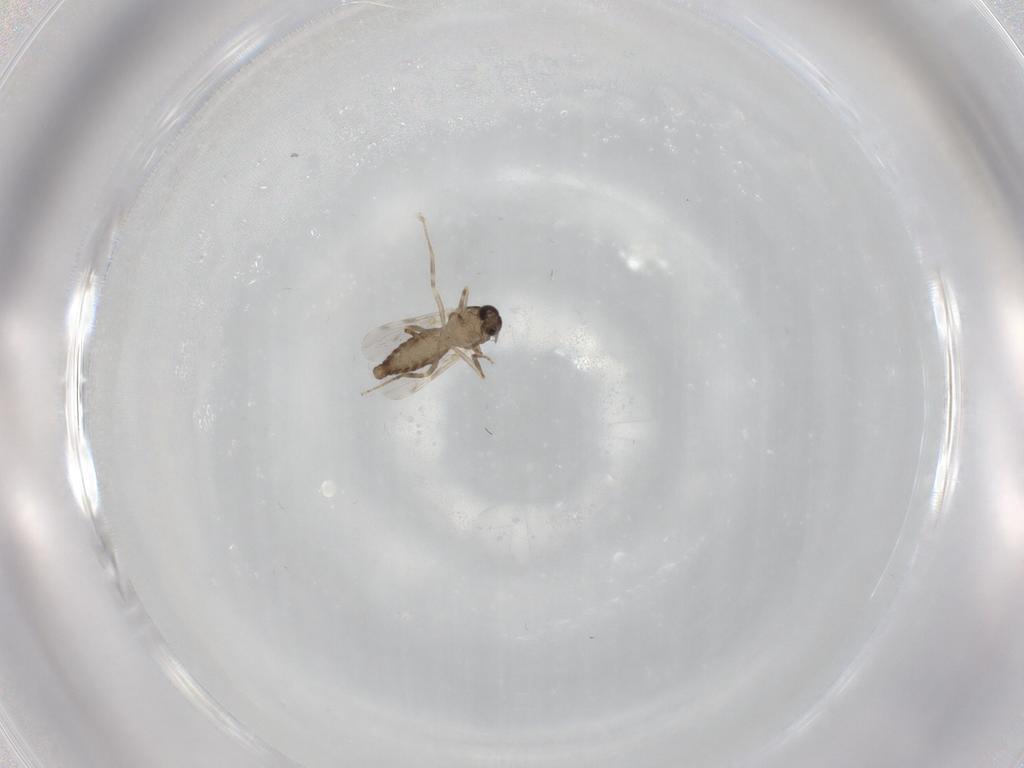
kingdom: Animalia
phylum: Arthropoda
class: Insecta
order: Diptera
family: Ceratopogonidae
